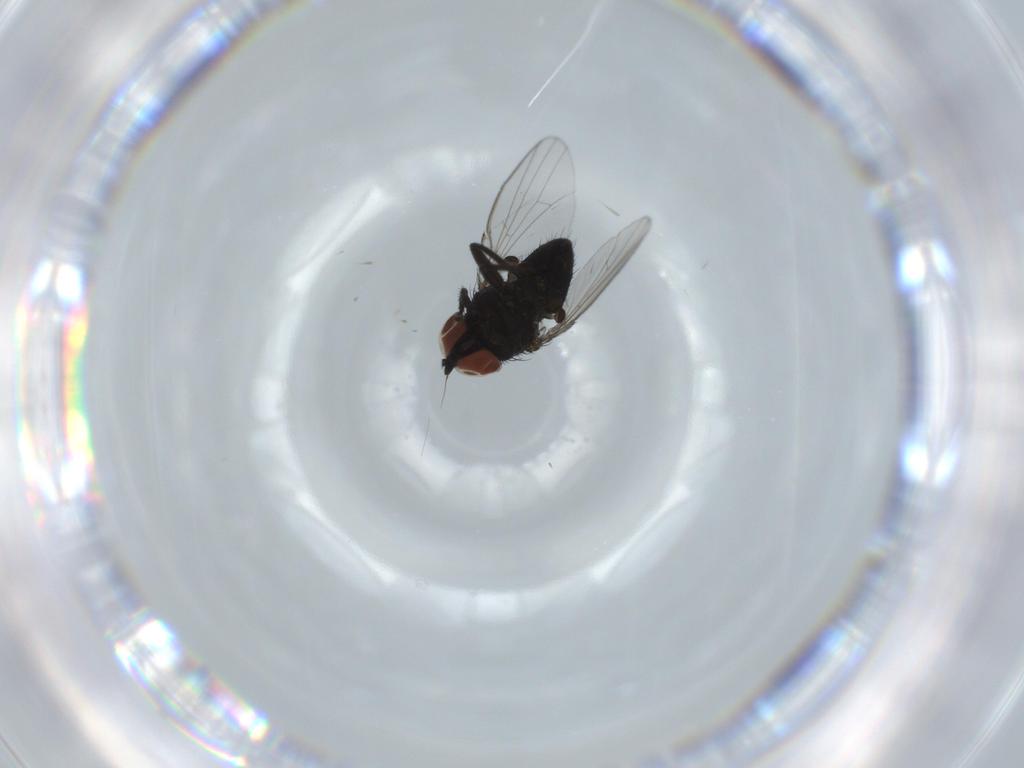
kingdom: Animalia
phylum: Arthropoda
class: Insecta
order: Diptera
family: Milichiidae
